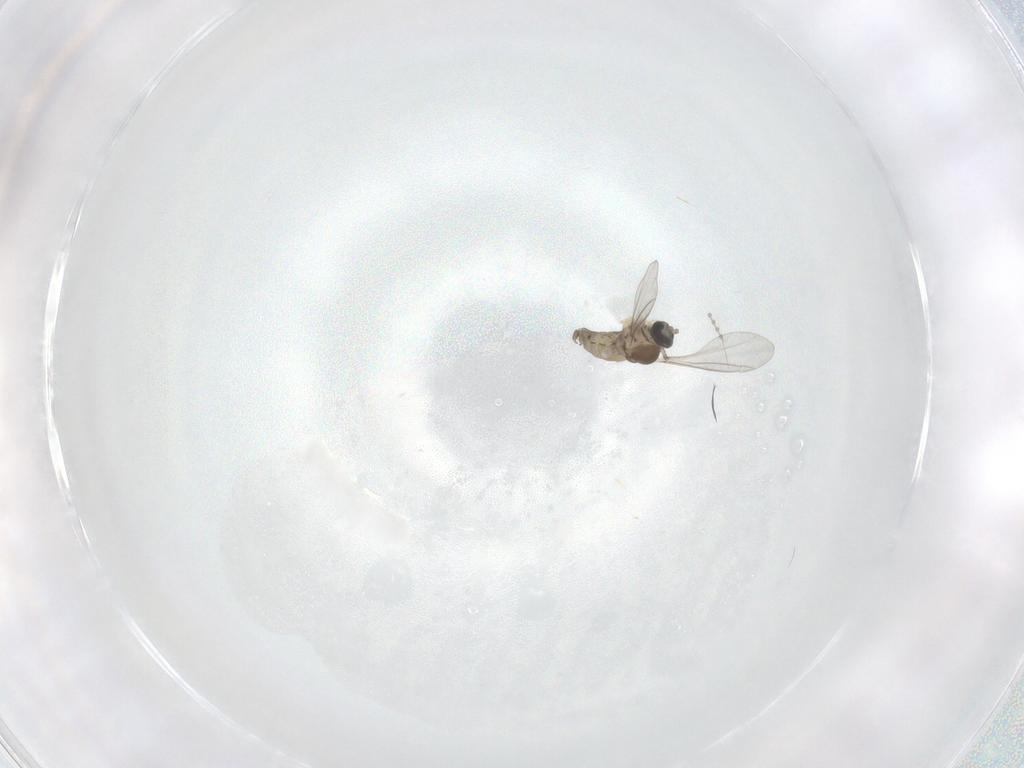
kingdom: Animalia
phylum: Arthropoda
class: Insecta
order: Diptera
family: Cecidomyiidae
